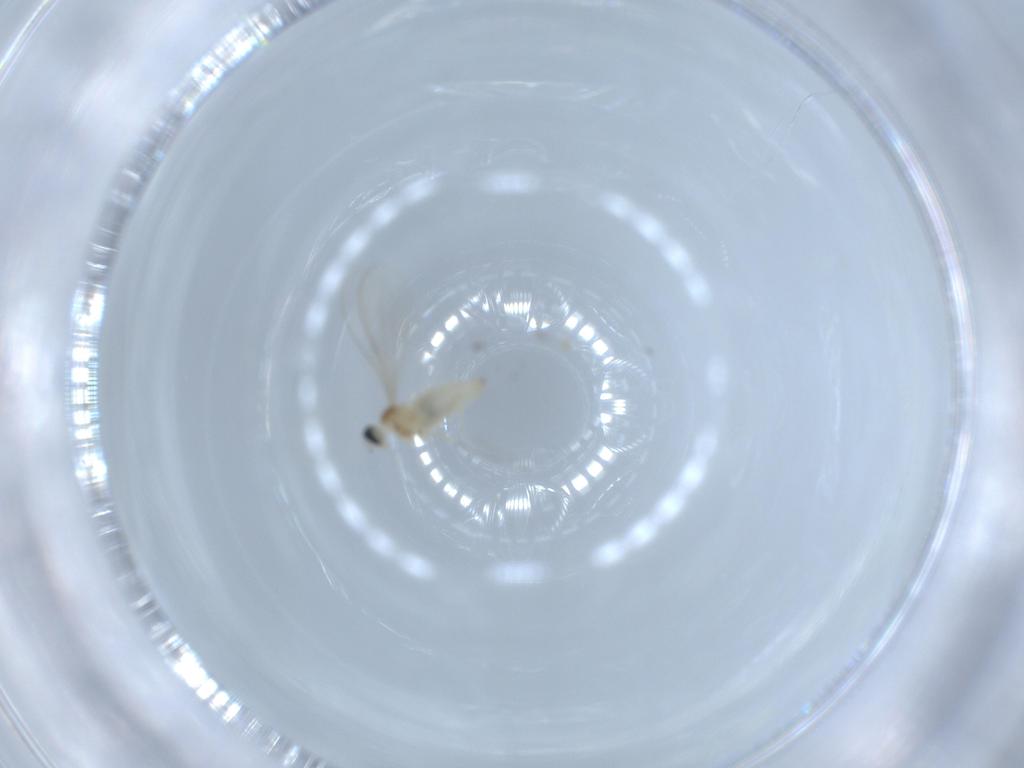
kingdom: Animalia
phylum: Arthropoda
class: Insecta
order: Diptera
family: Cecidomyiidae
